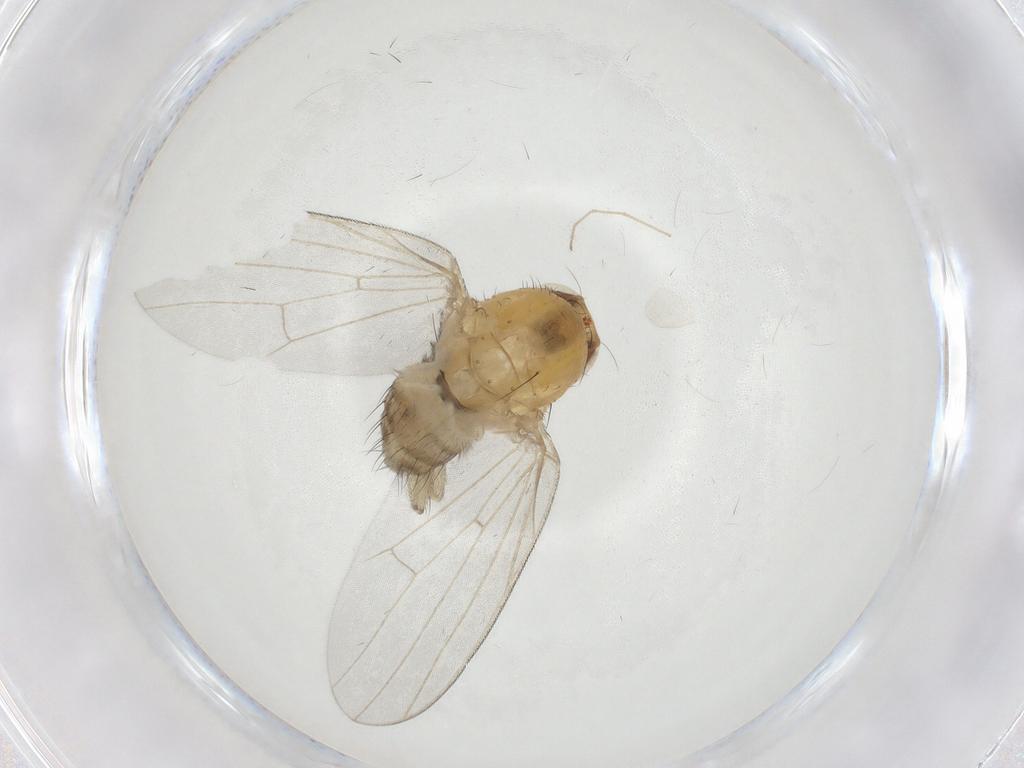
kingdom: Animalia
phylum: Arthropoda
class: Insecta
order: Diptera
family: Chironomidae
